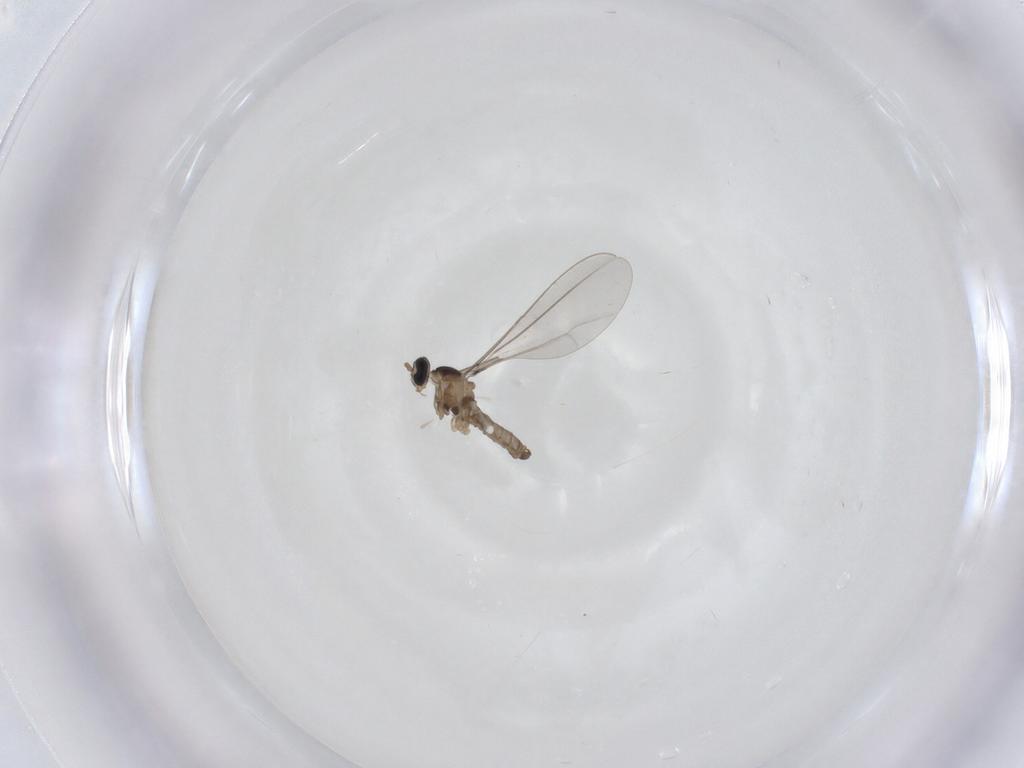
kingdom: Animalia
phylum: Arthropoda
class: Insecta
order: Diptera
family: Cecidomyiidae
